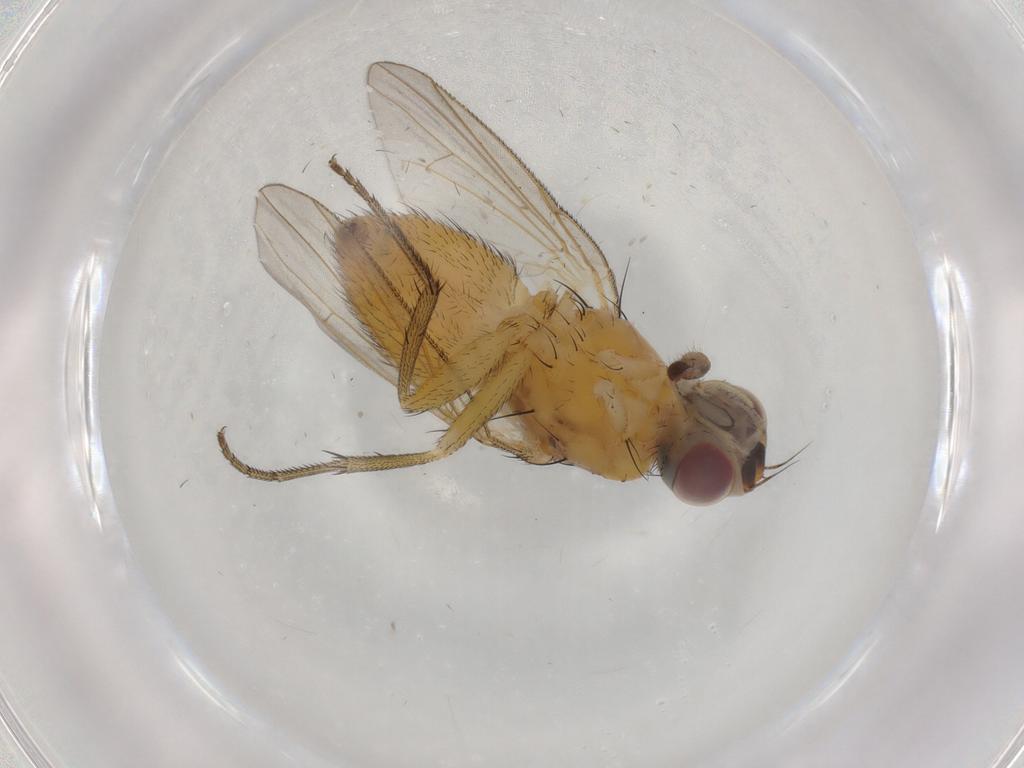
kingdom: Animalia
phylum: Arthropoda
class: Insecta
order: Diptera
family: Muscidae
